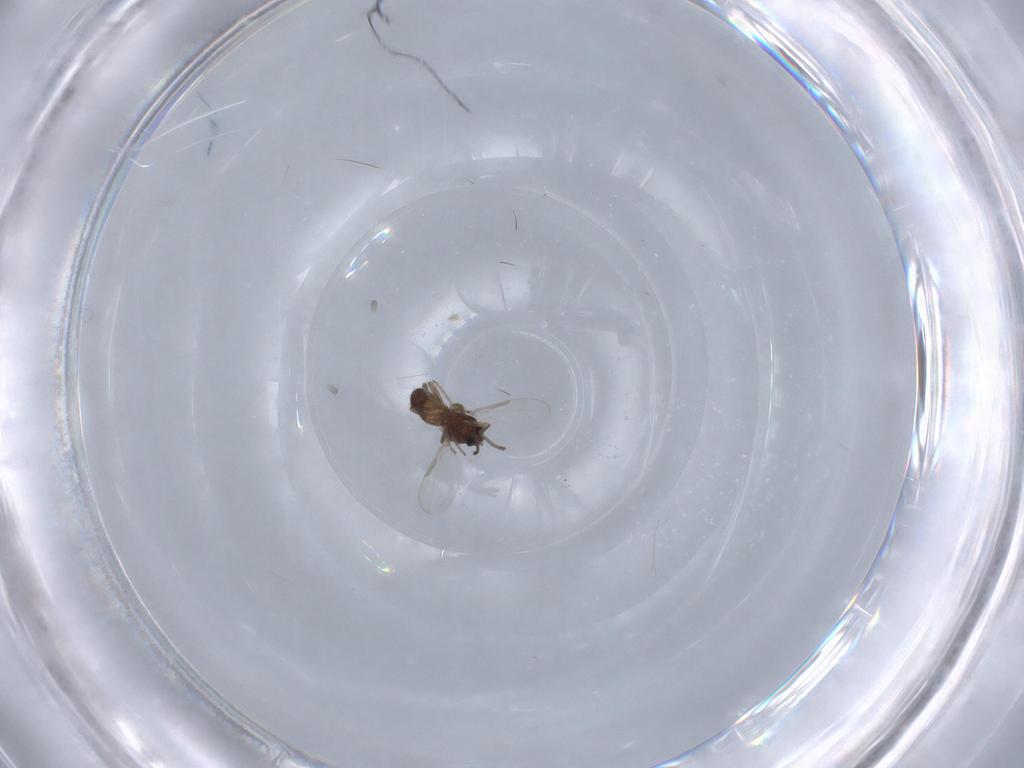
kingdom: Animalia
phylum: Arthropoda
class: Insecta
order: Diptera
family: Ceratopogonidae
